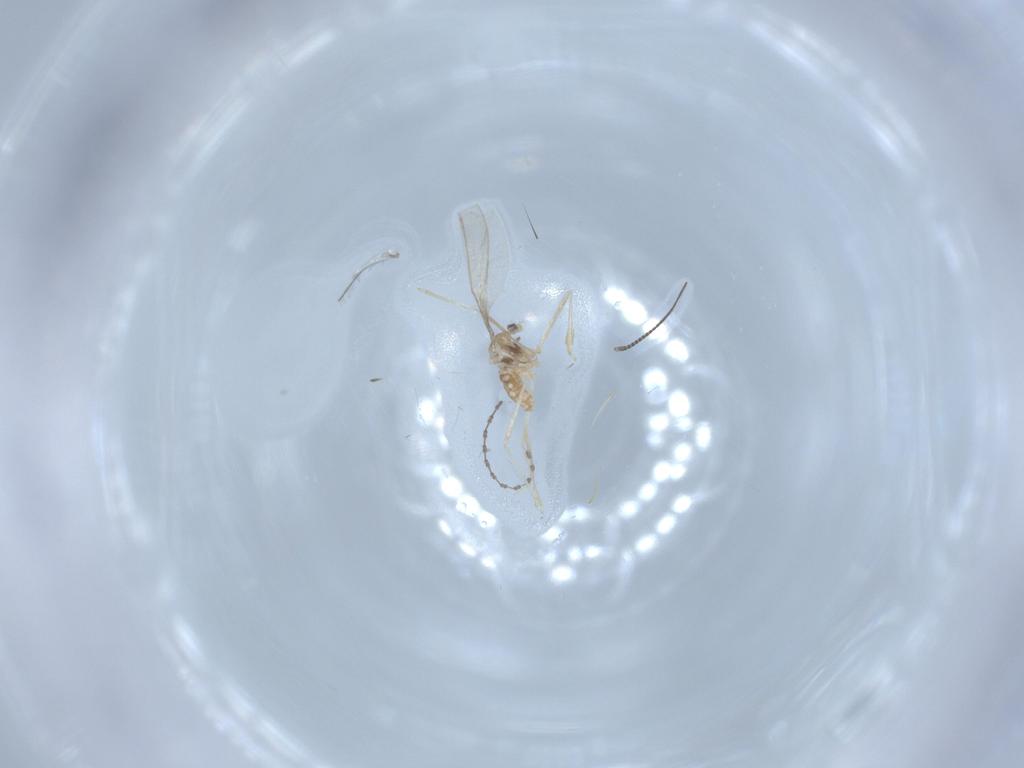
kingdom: Animalia
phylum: Arthropoda
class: Insecta
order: Diptera
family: Cecidomyiidae
